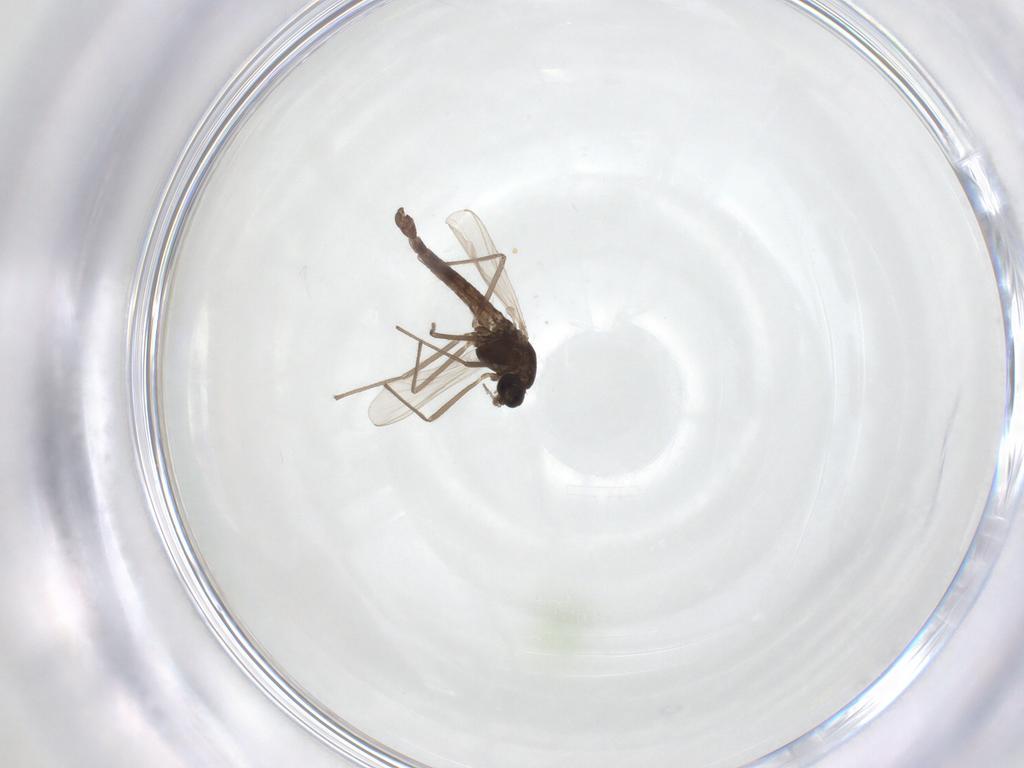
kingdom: Animalia
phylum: Arthropoda
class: Insecta
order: Diptera
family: Chironomidae
